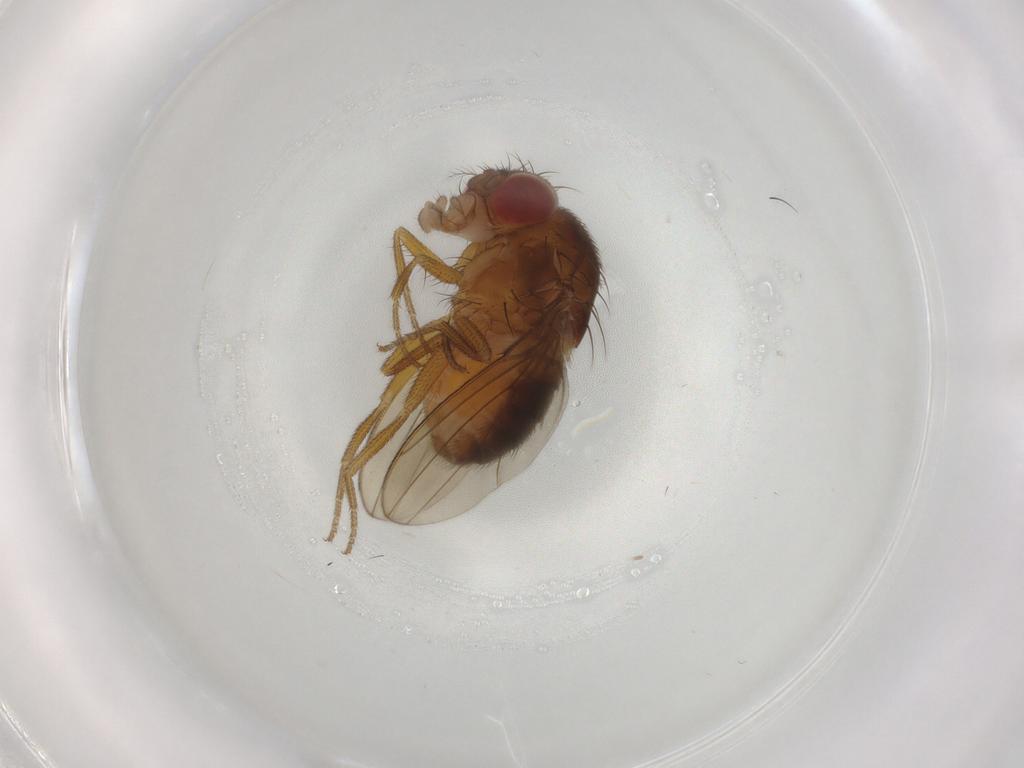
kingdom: Animalia
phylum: Arthropoda
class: Insecta
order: Diptera
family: Drosophilidae
